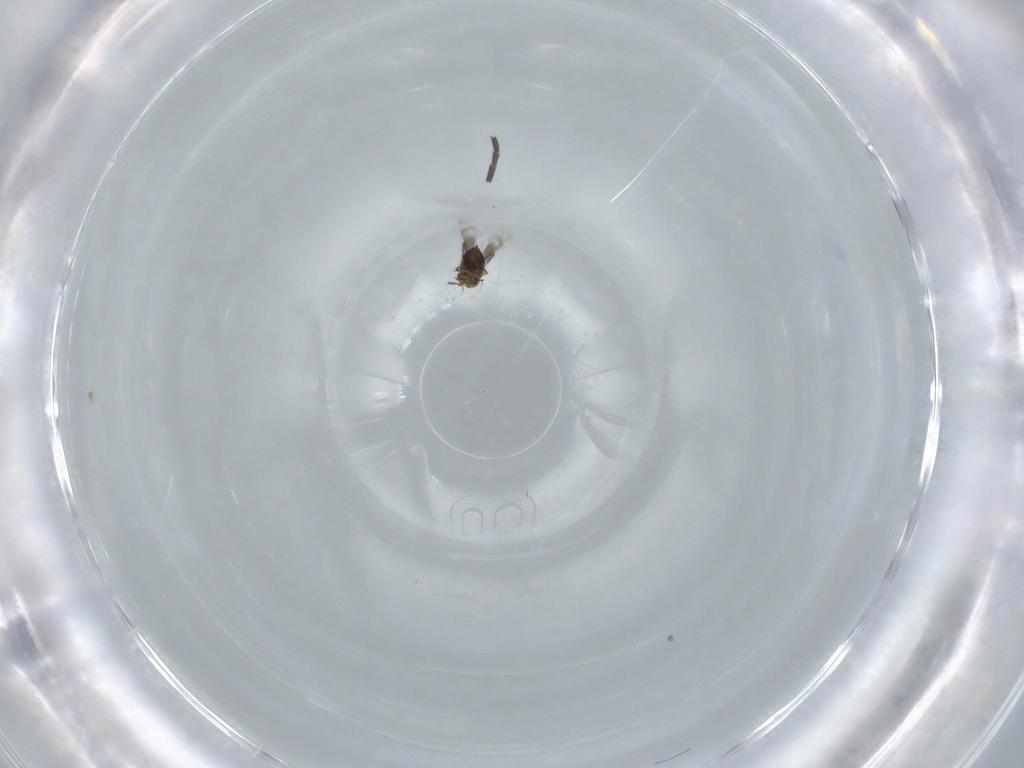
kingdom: Animalia
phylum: Arthropoda
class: Insecta
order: Hymenoptera
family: Signiphoridae
